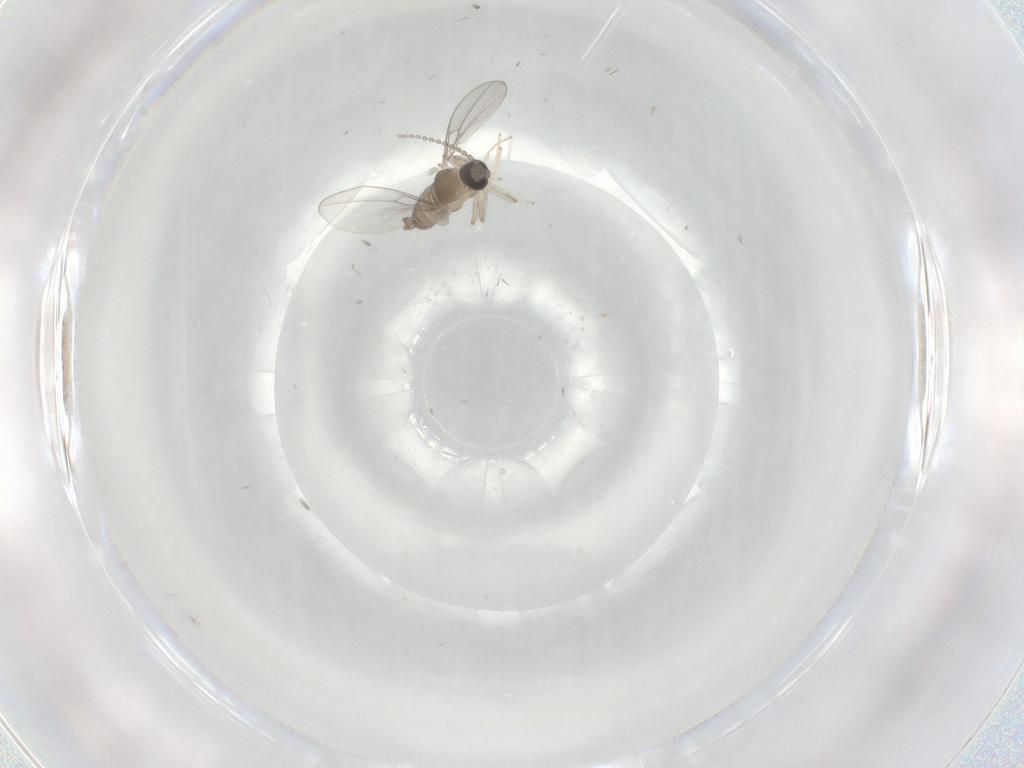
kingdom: Animalia
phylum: Arthropoda
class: Insecta
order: Diptera
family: Cecidomyiidae
